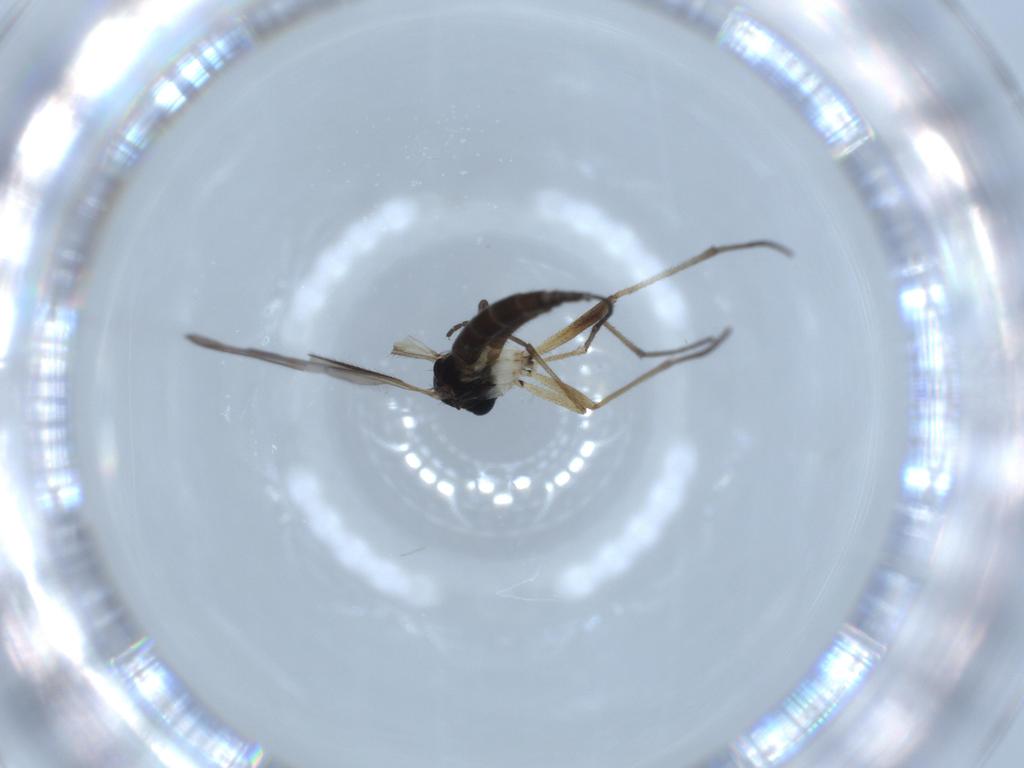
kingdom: Animalia
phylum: Arthropoda
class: Insecta
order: Diptera
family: Sciaridae
